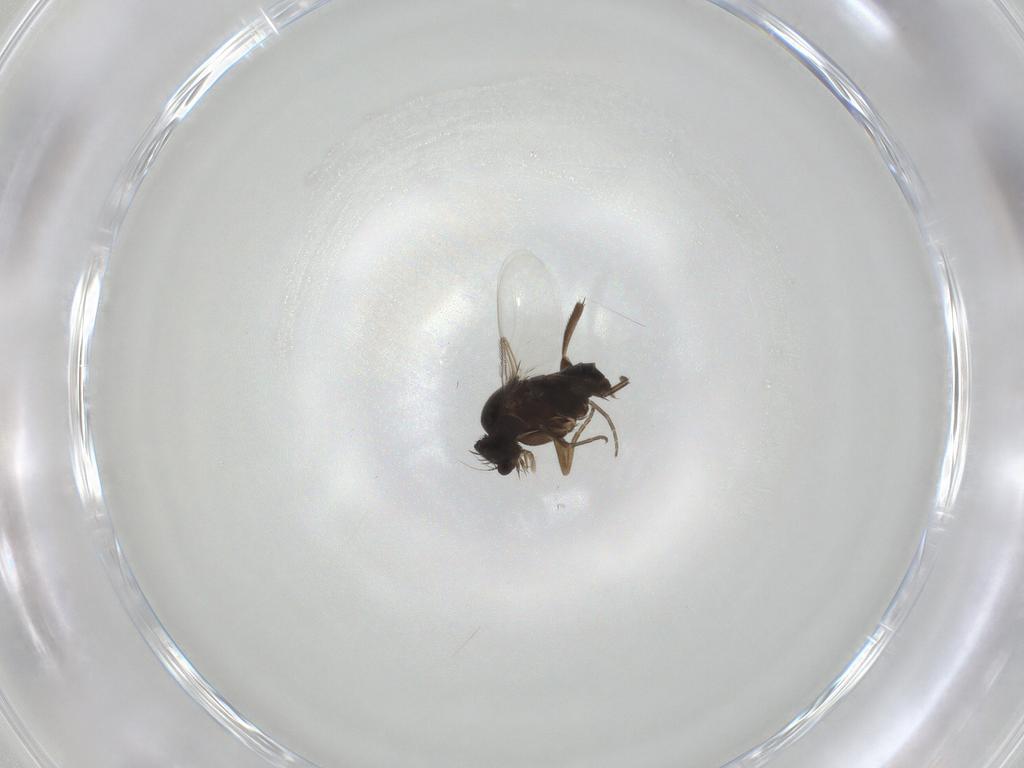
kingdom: Animalia
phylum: Arthropoda
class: Insecta
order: Diptera
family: Phoridae
